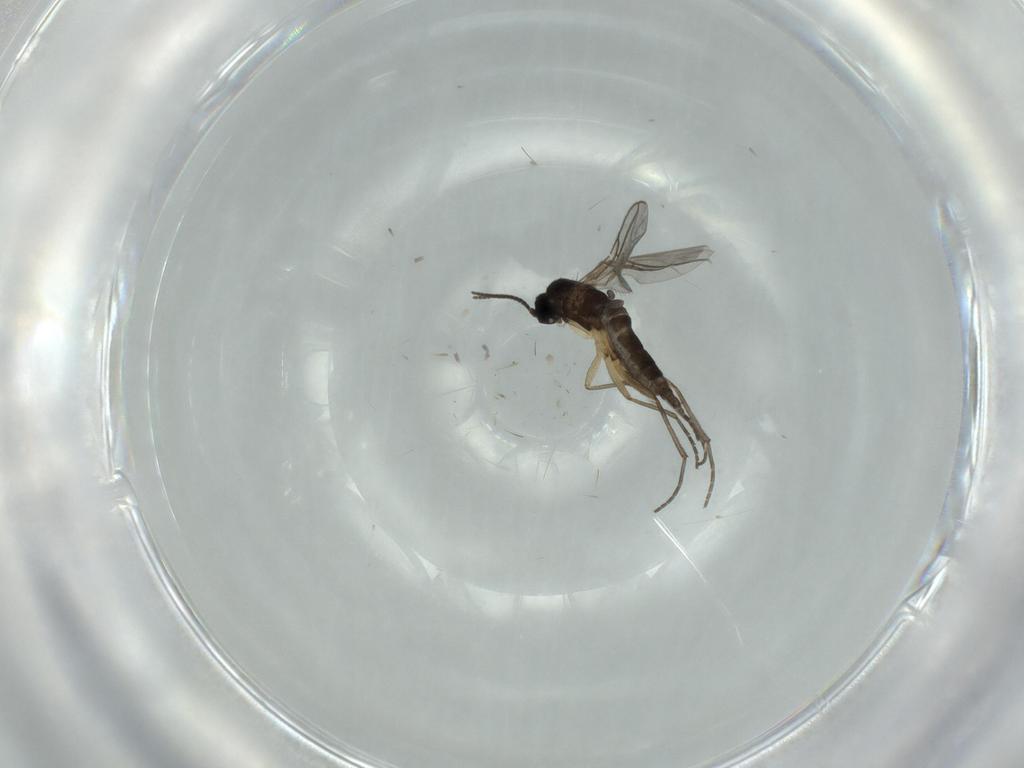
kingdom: Animalia
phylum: Arthropoda
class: Insecta
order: Diptera
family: Sciaridae
